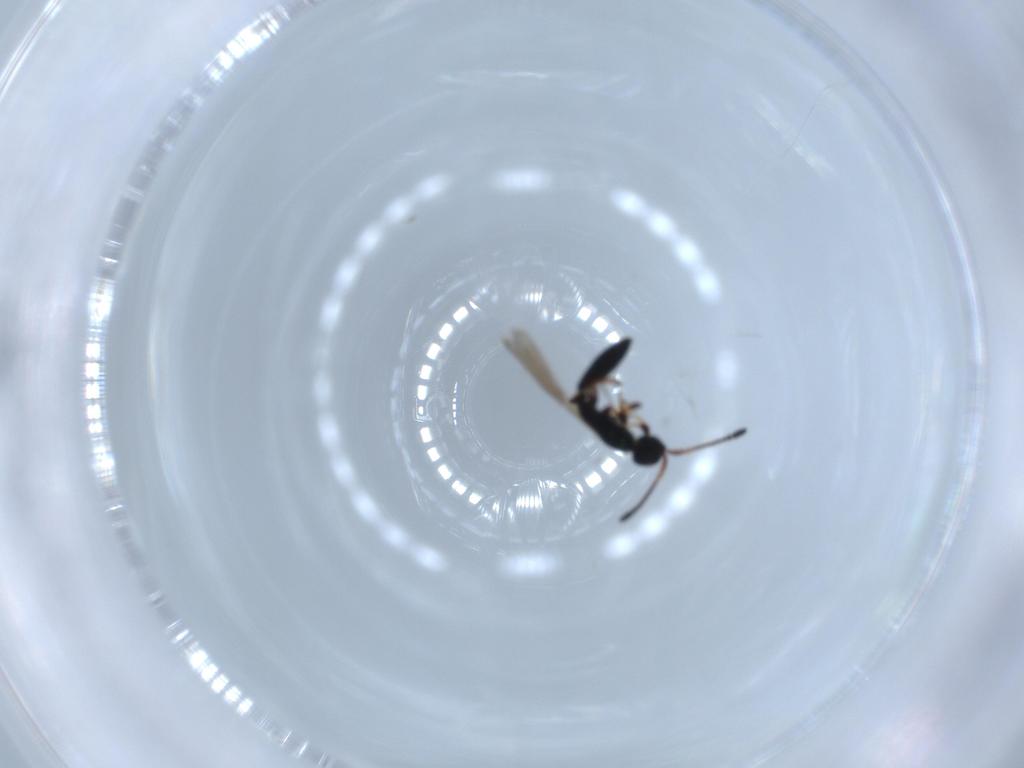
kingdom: Animalia
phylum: Arthropoda
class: Insecta
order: Hymenoptera
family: Diapriidae
